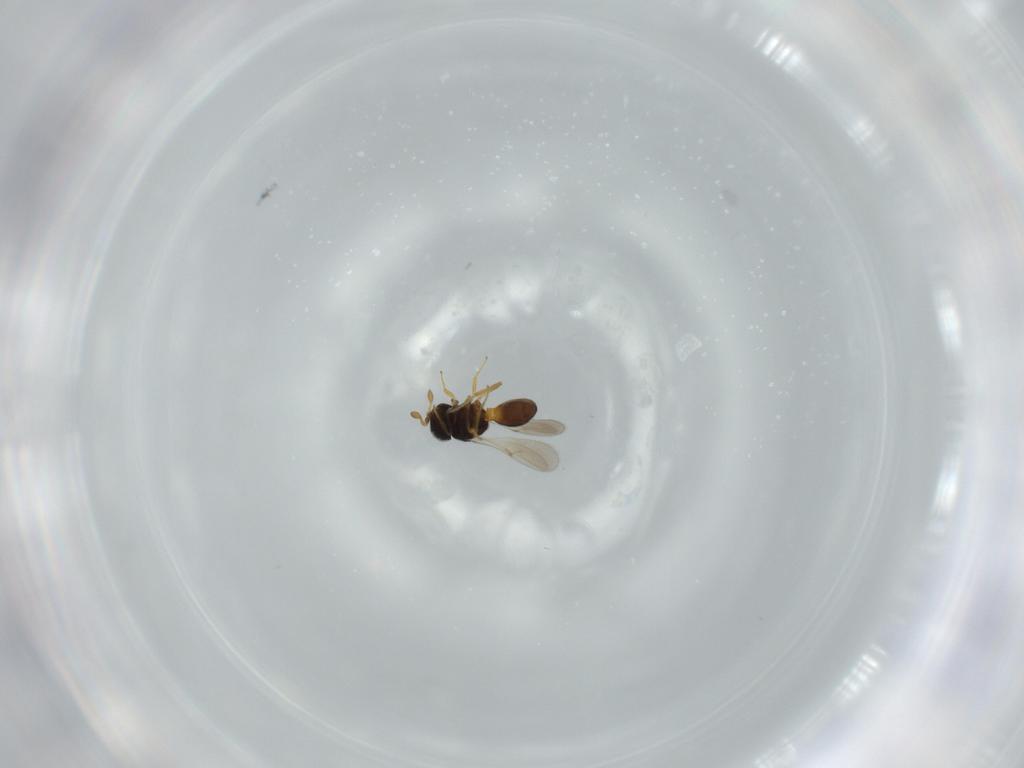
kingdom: Animalia
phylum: Arthropoda
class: Insecta
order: Hymenoptera
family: Scelionidae
